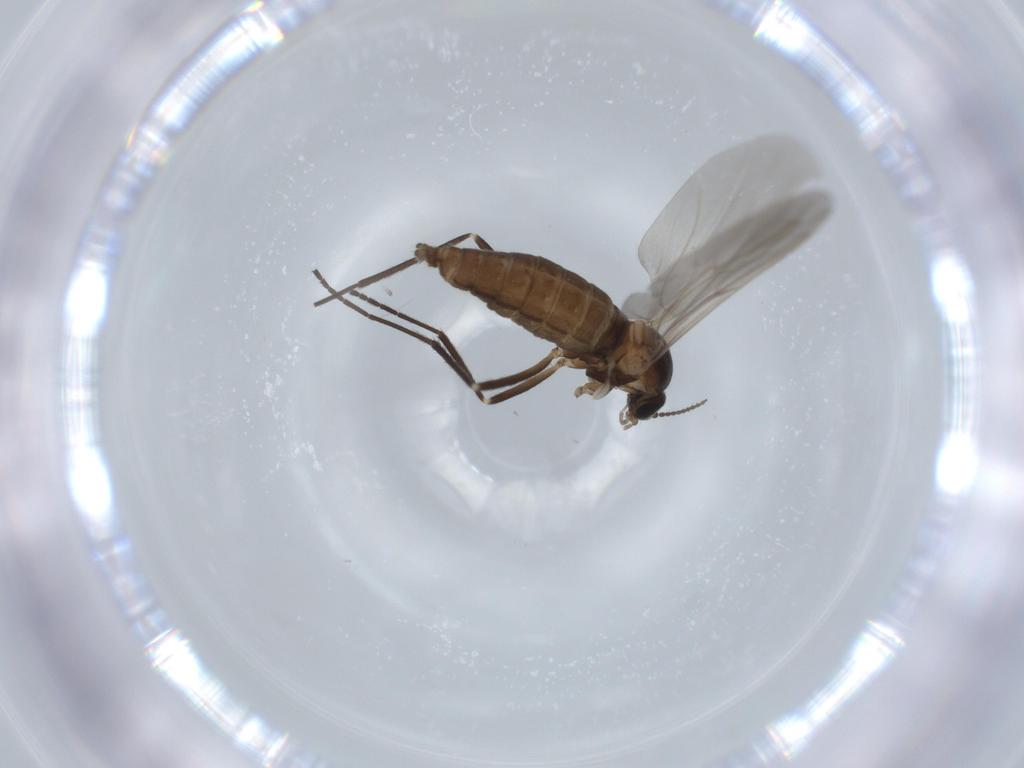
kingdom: Animalia
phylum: Arthropoda
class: Insecta
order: Diptera
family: Cecidomyiidae
